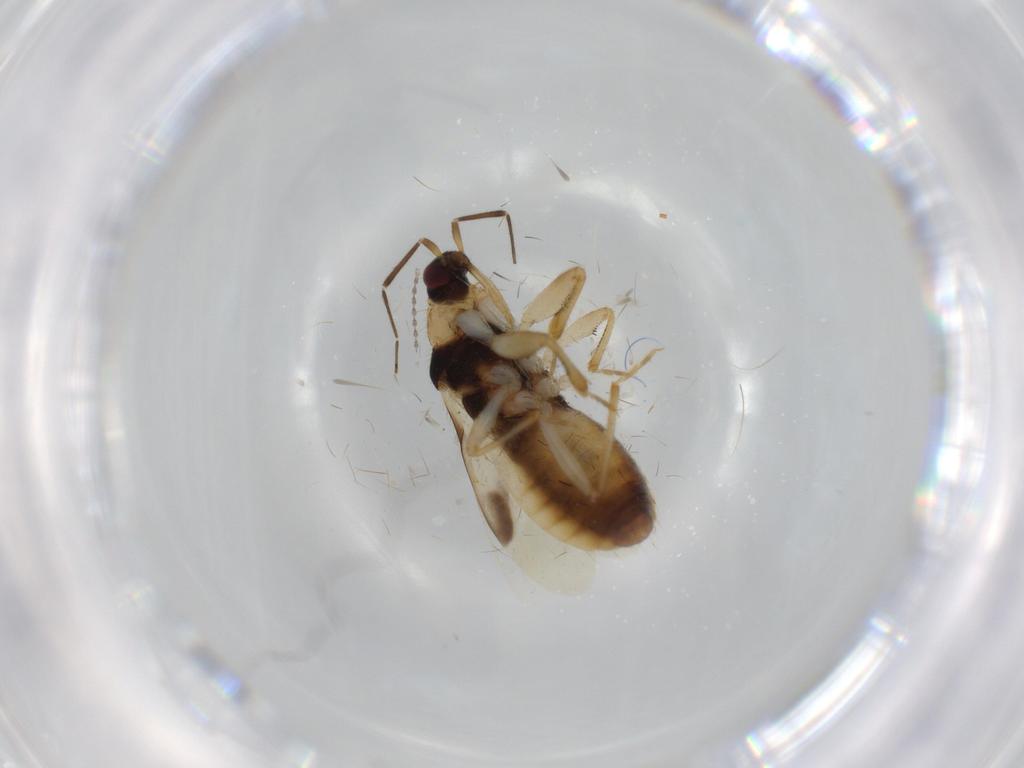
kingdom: Animalia
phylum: Arthropoda
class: Insecta
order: Hemiptera
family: Nabidae
